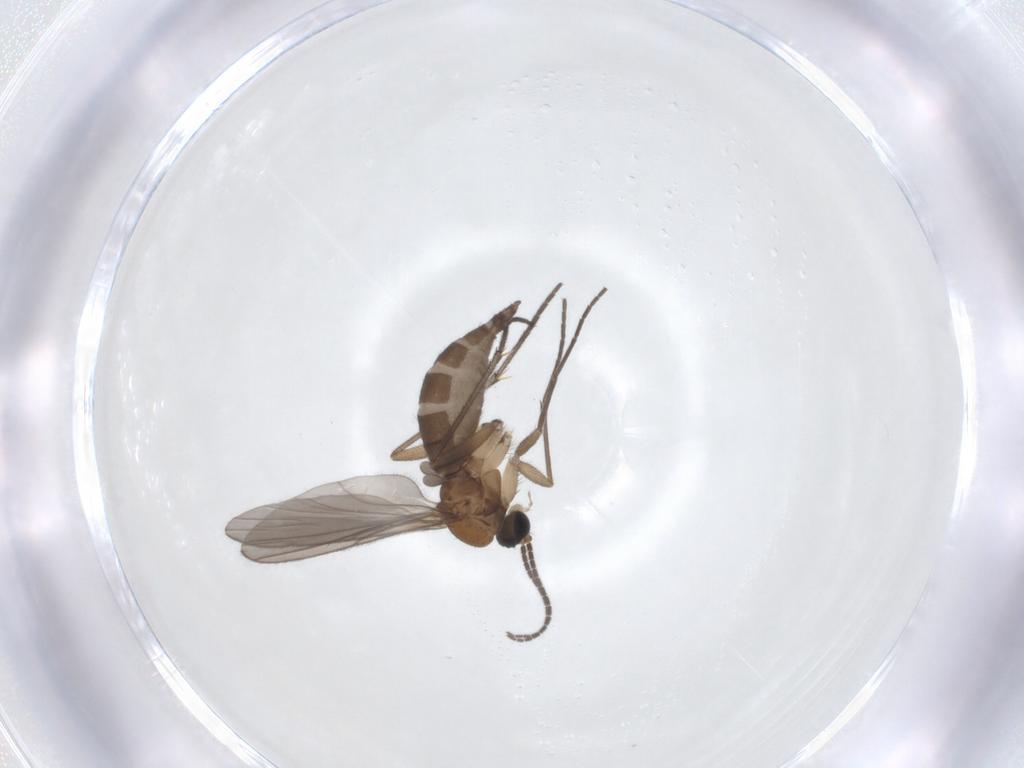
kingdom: Animalia
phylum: Arthropoda
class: Insecta
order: Diptera
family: Sciaridae
